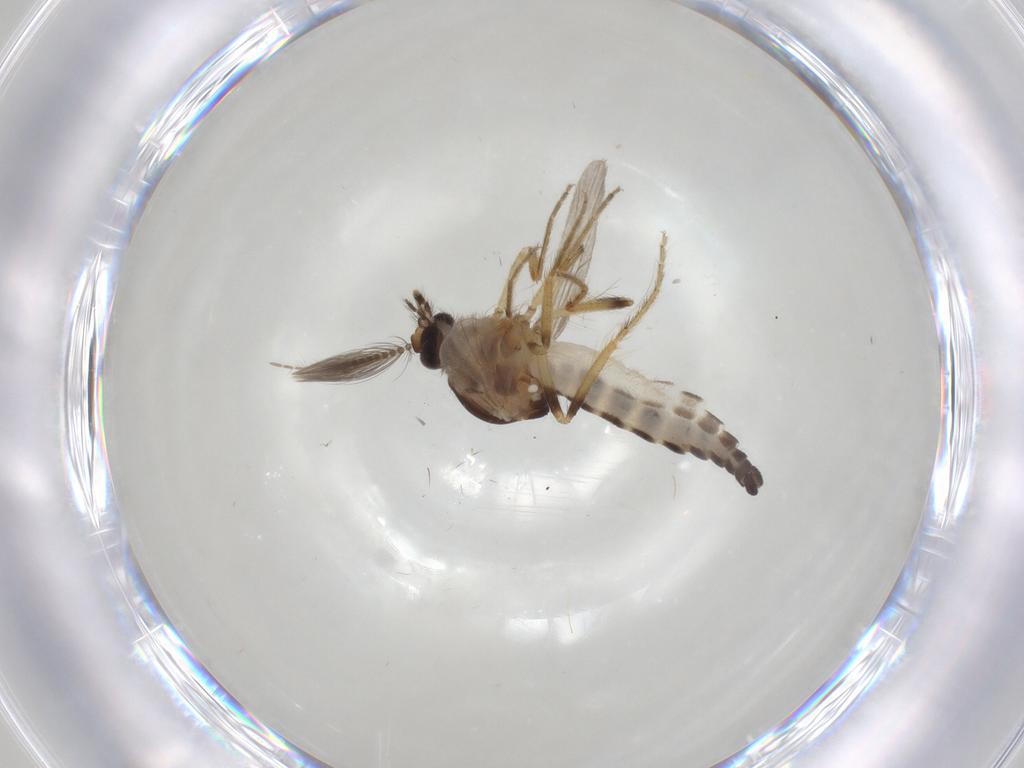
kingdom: Animalia
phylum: Arthropoda
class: Insecta
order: Diptera
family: Ceratopogonidae
